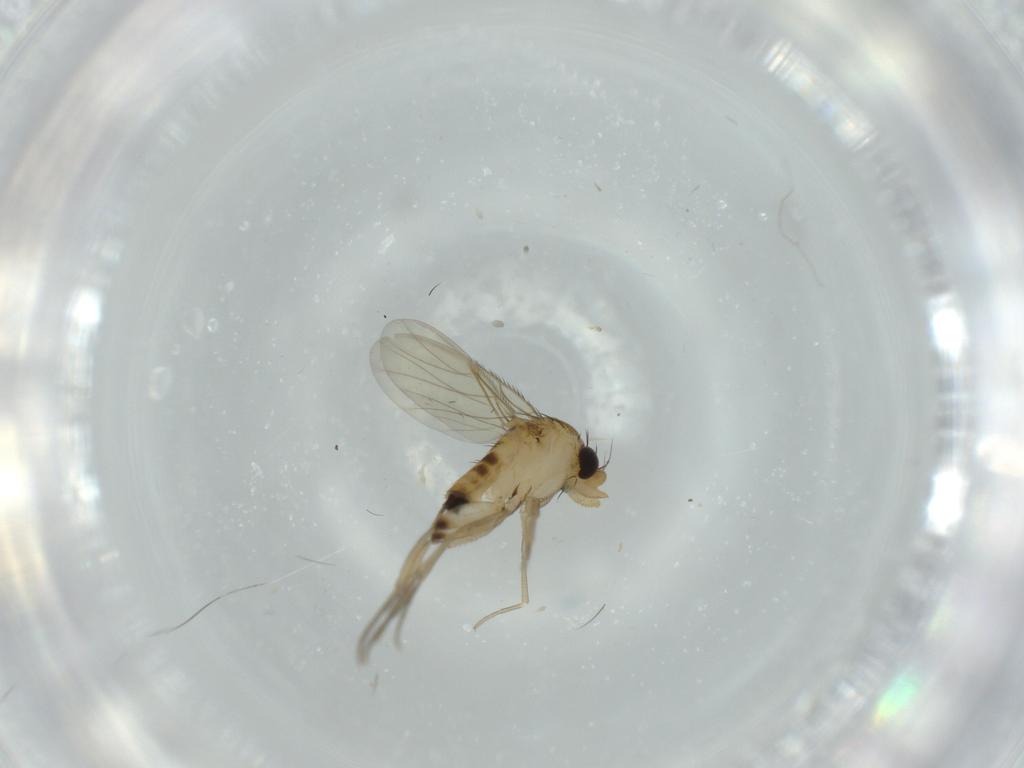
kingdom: Animalia
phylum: Arthropoda
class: Insecta
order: Diptera
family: Phoridae
